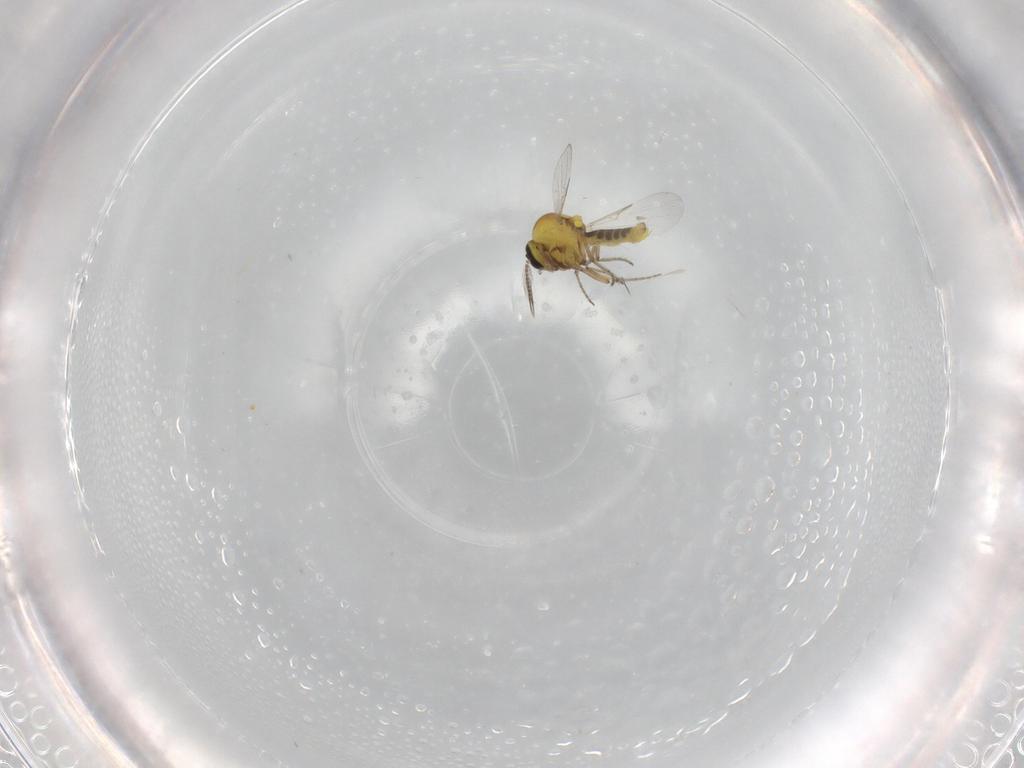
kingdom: Animalia
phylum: Arthropoda
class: Insecta
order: Diptera
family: Ceratopogonidae
